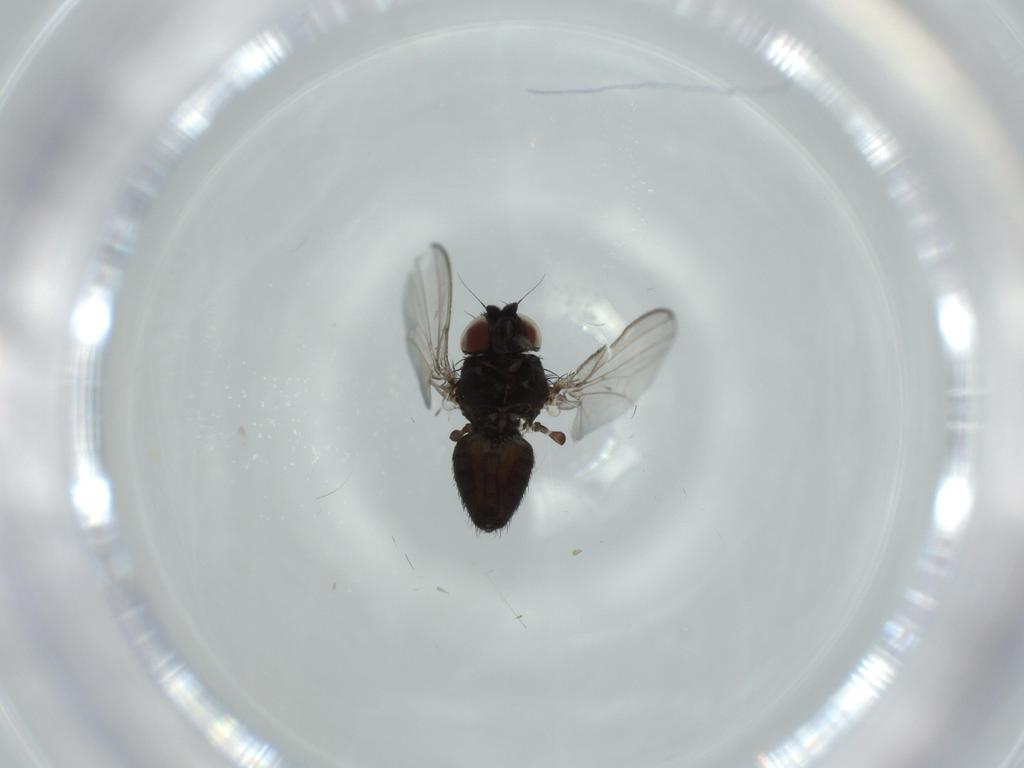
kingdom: Animalia
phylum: Arthropoda
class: Insecta
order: Diptera
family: Milichiidae
